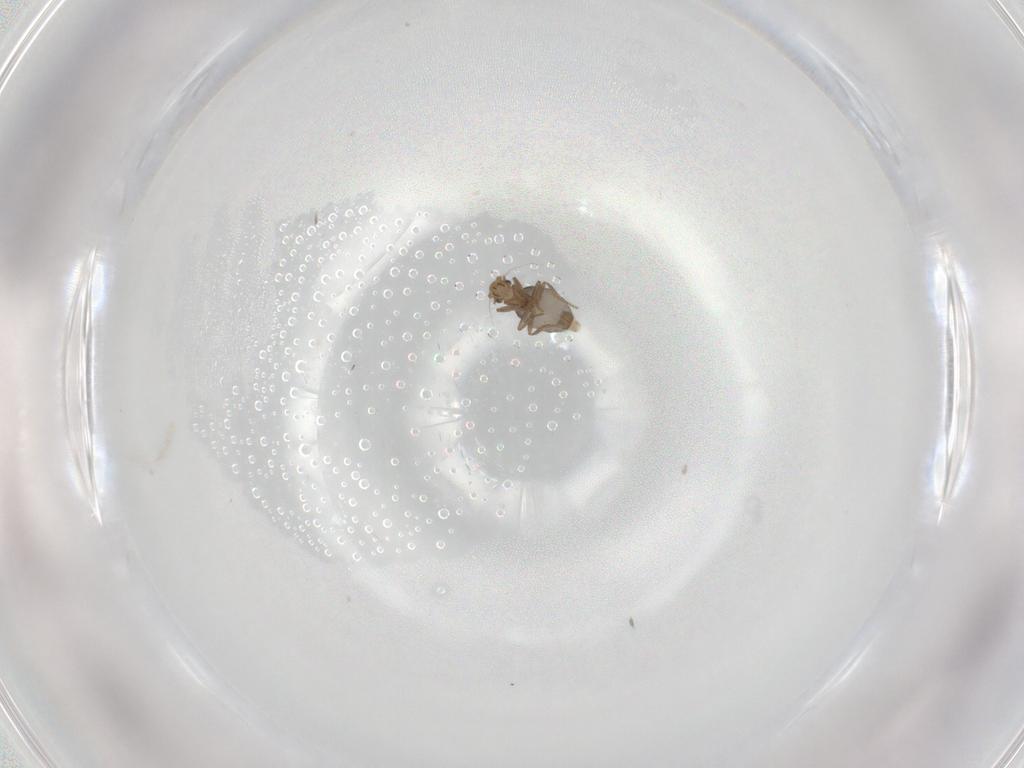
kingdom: Animalia
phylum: Arthropoda
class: Insecta
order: Diptera
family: Phoridae
